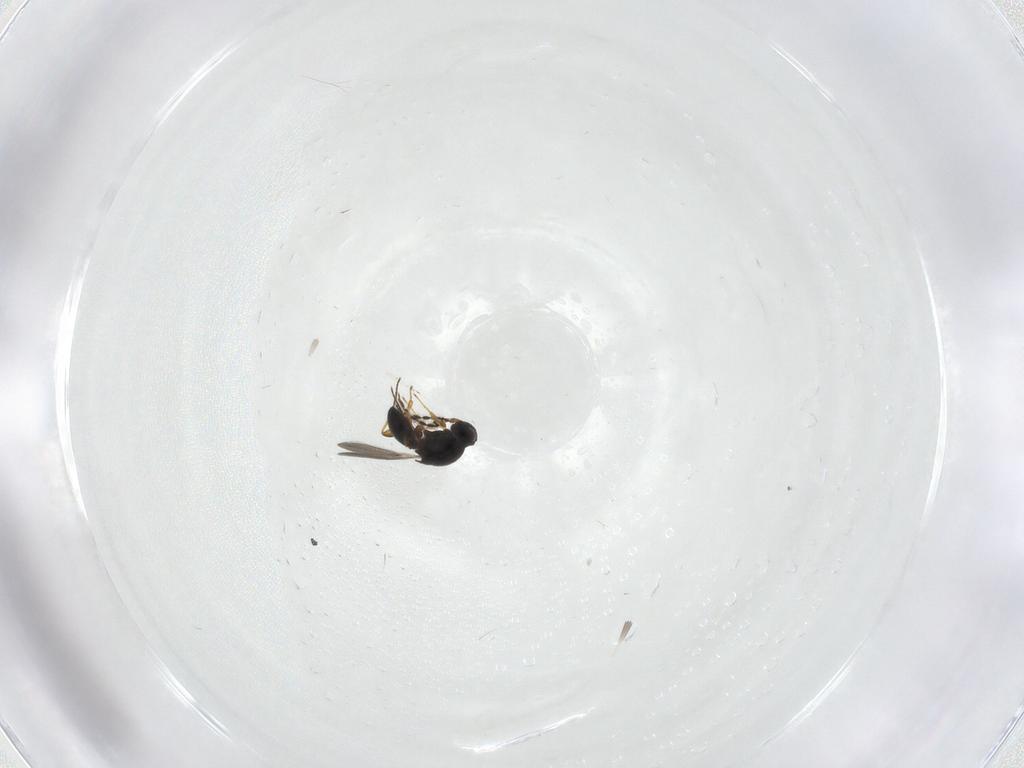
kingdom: Animalia
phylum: Arthropoda
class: Insecta
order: Hymenoptera
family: Platygastridae
